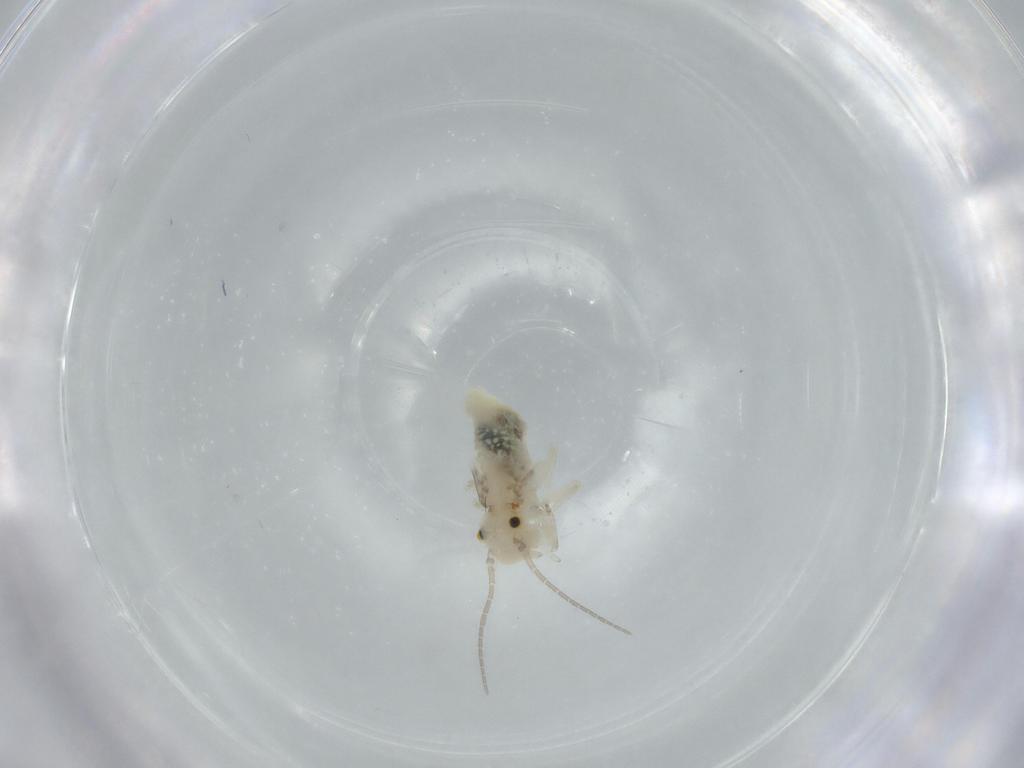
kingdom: Animalia
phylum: Arthropoda
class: Insecta
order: Psocodea
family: Caeciliusidae
